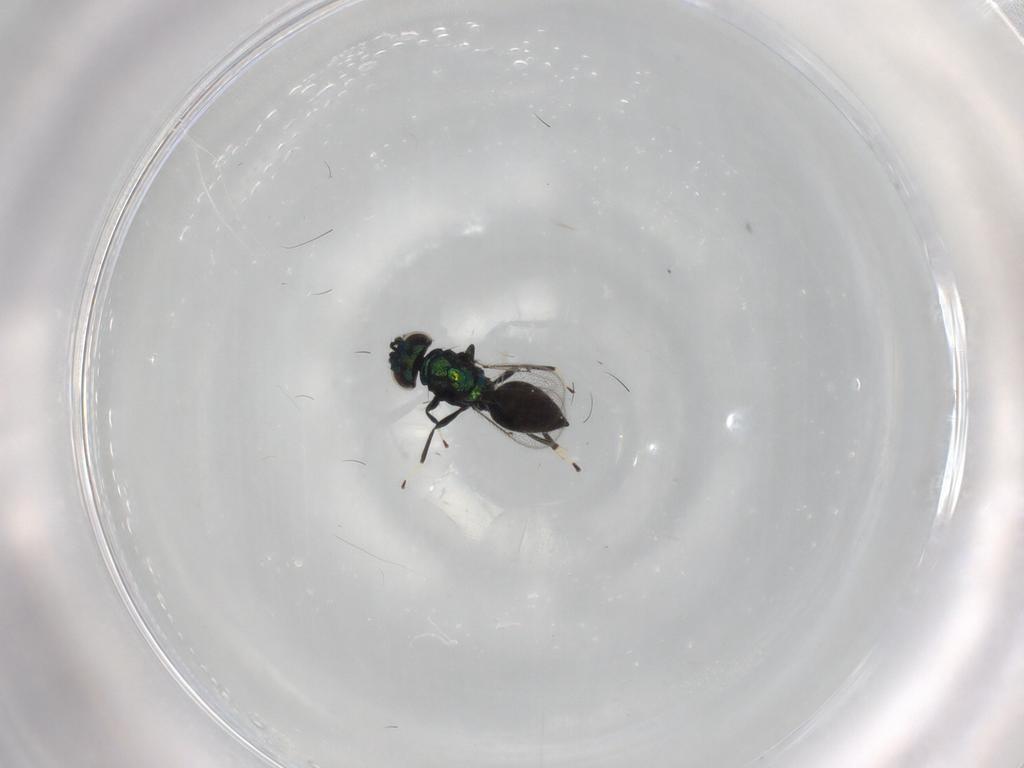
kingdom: Animalia
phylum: Arthropoda
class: Insecta
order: Hymenoptera
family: Eulophidae
